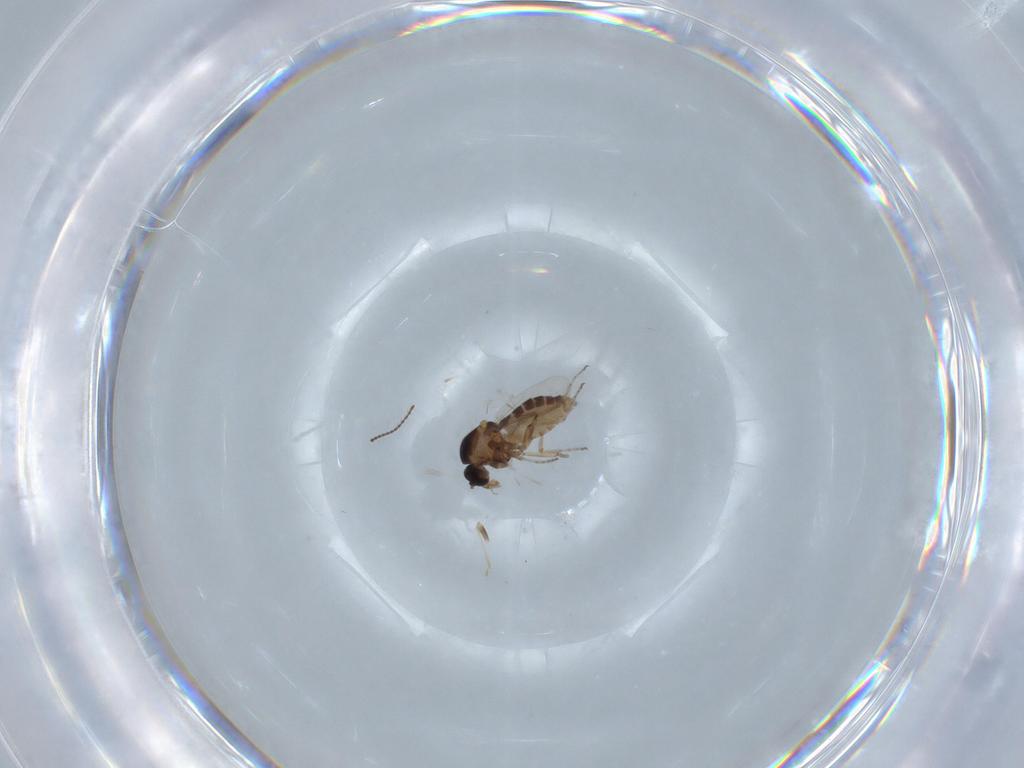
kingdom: Animalia
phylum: Arthropoda
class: Insecta
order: Diptera
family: Ceratopogonidae
